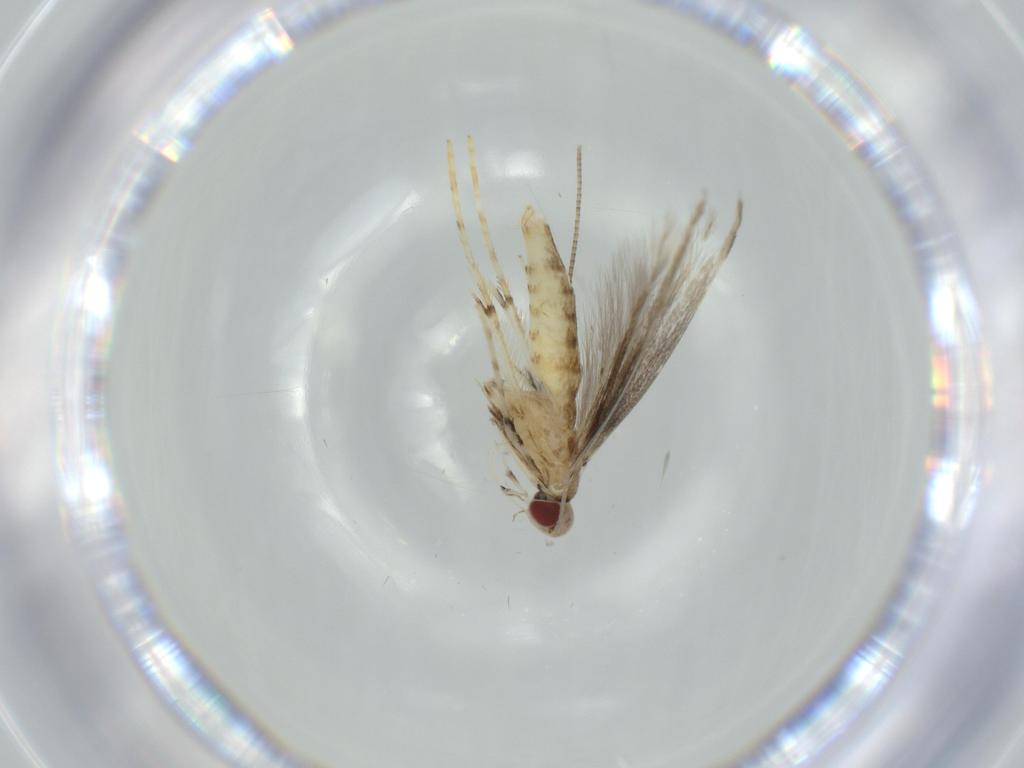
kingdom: Animalia
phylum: Arthropoda
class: Insecta
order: Lepidoptera
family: Gracillariidae
